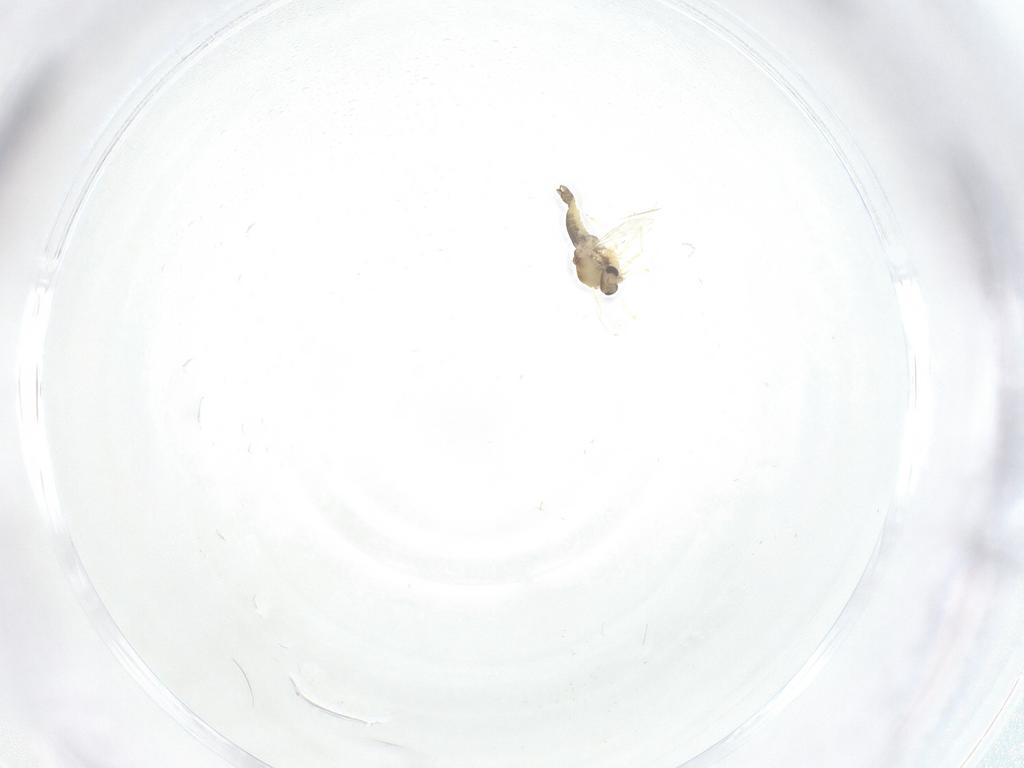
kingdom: Animalia
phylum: Arthropoda
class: Insecta
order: Diptera
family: Chironomidae
